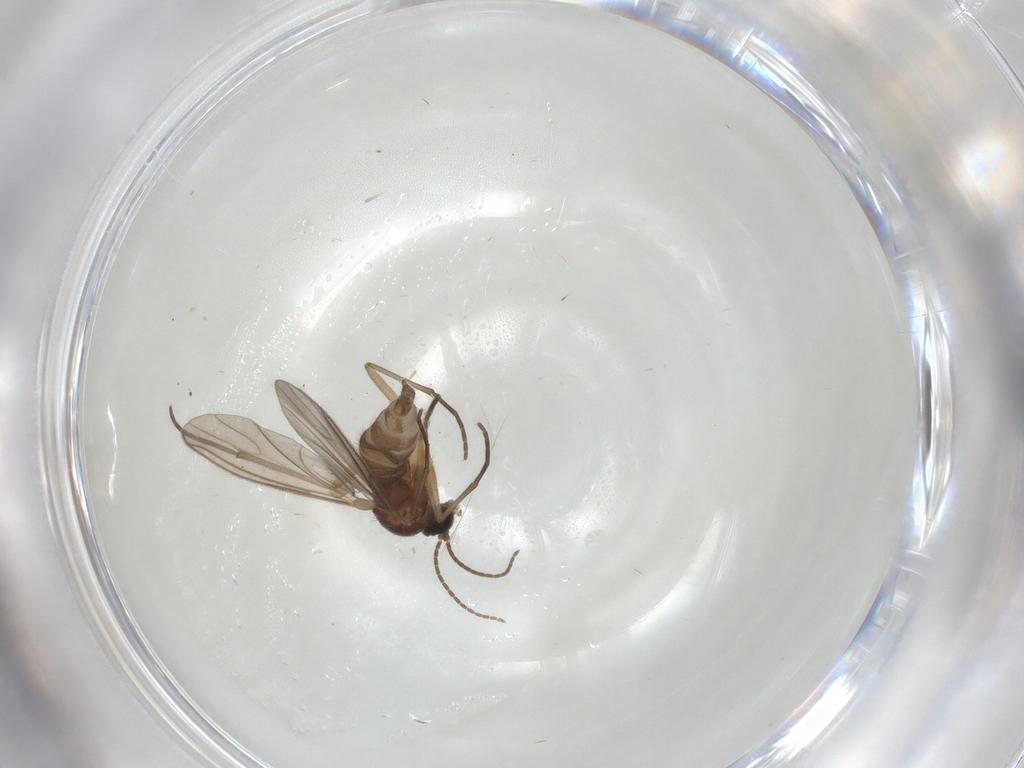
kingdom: Animalia
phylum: Arthropoda
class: Insecta
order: Diptera
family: Sciaridae
